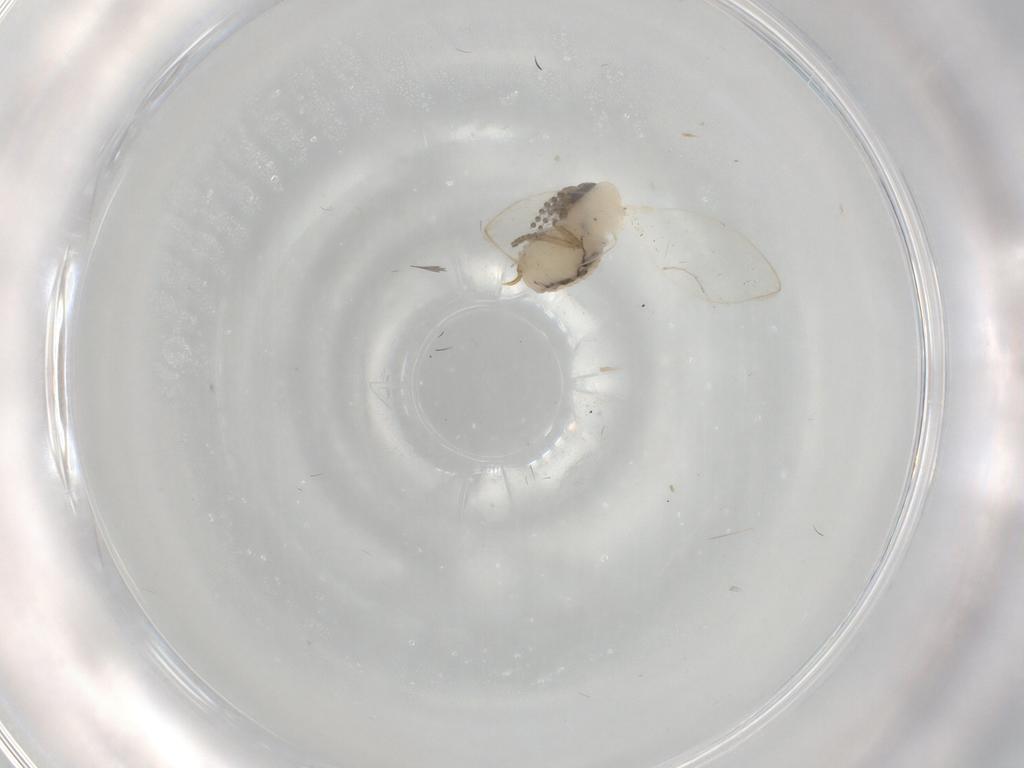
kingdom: Animalia
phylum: Arthropoda
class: Insecta
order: Diptera
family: Psychodidae
